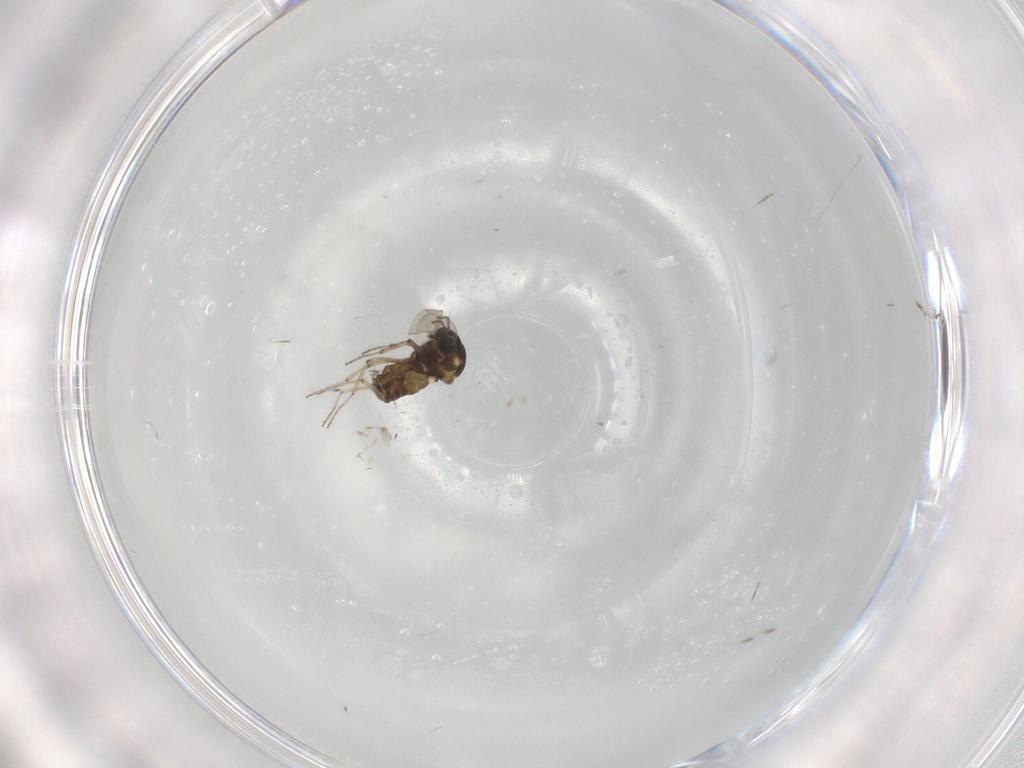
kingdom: Animalia
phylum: Arthropoda
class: Insecta
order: Diptera
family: Ceratopogonidae
